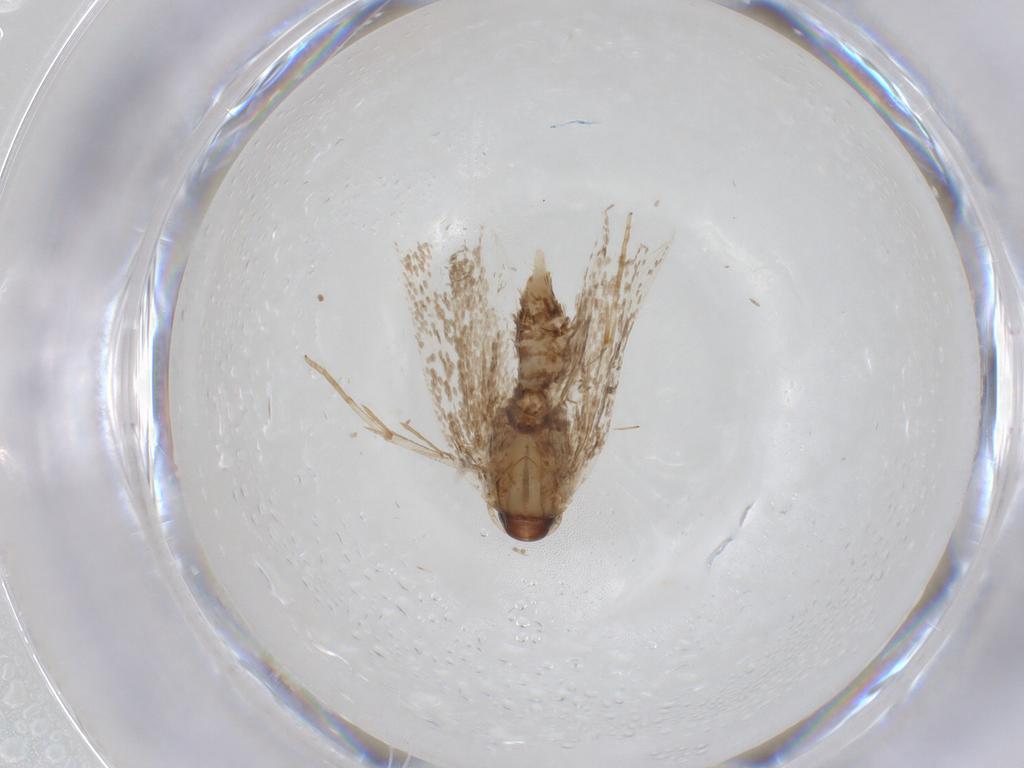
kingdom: Animalia
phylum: Arthropoda
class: Insecta
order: Lepidoptera
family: Gelechiidae
